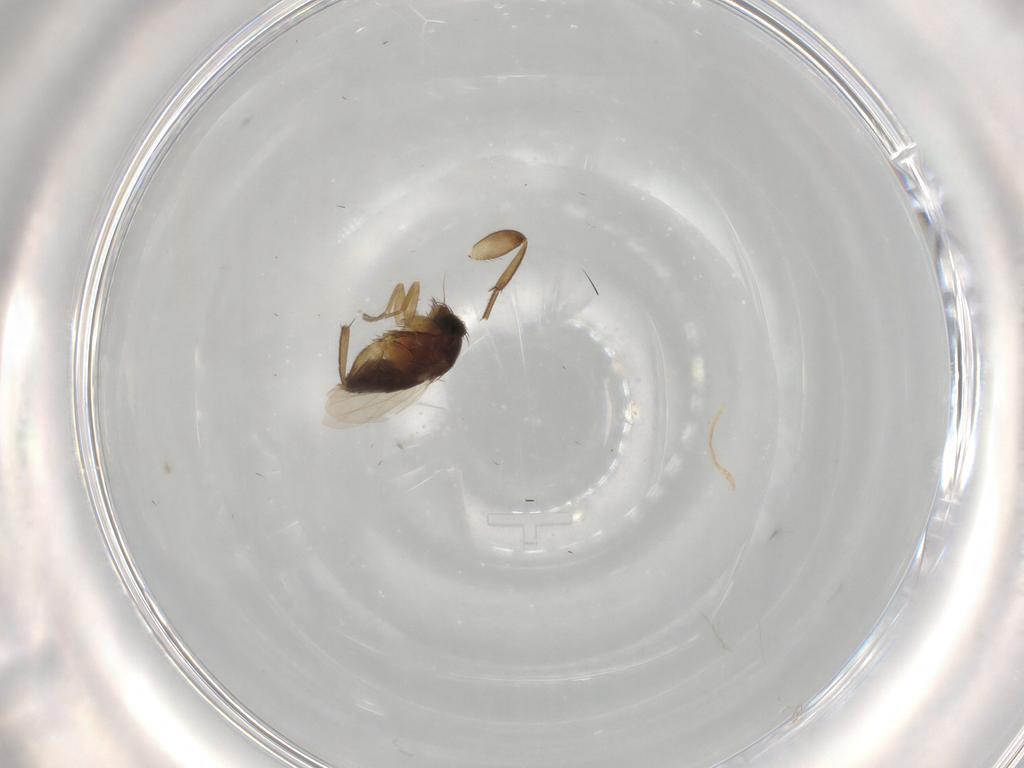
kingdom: Animalia
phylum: Arthropoda
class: Insecta
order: Diptera
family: Phoridae
